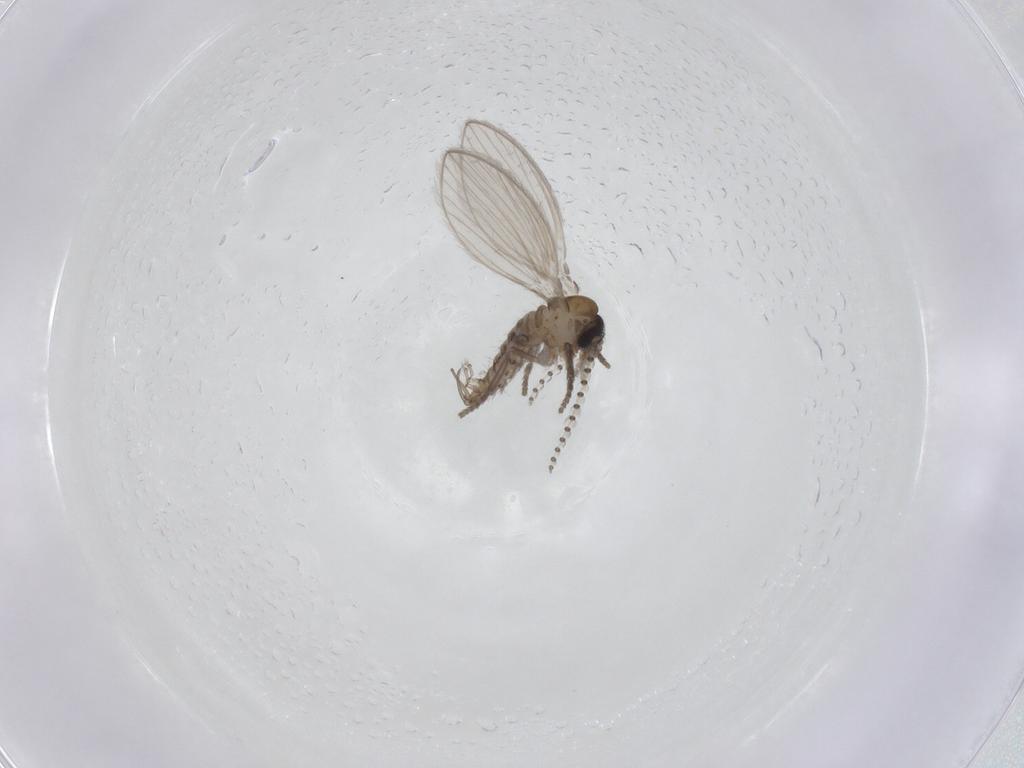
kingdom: Animalia
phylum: Arthropoda
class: Insecta
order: Diptera
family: Psychodidae
